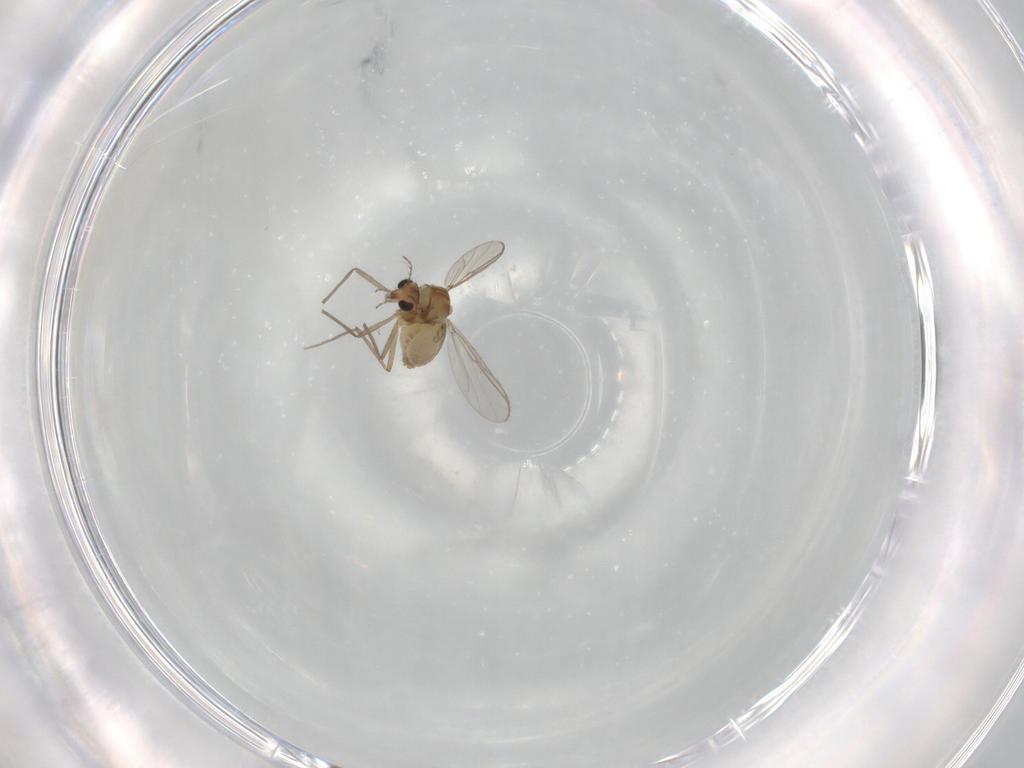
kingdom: Animalia
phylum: Arthropoda
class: Insecta
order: Diptera
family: Chironomidae
